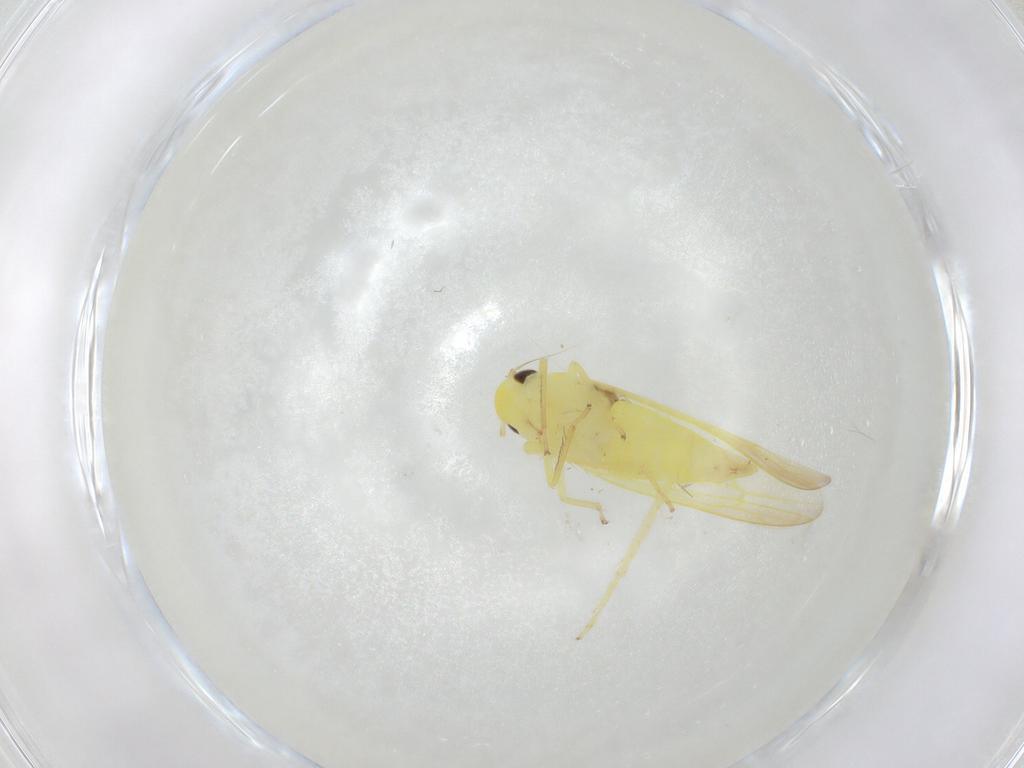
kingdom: Animalia
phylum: Arthropoda
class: Insecta
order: Hemiptera
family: Cicadellidae
